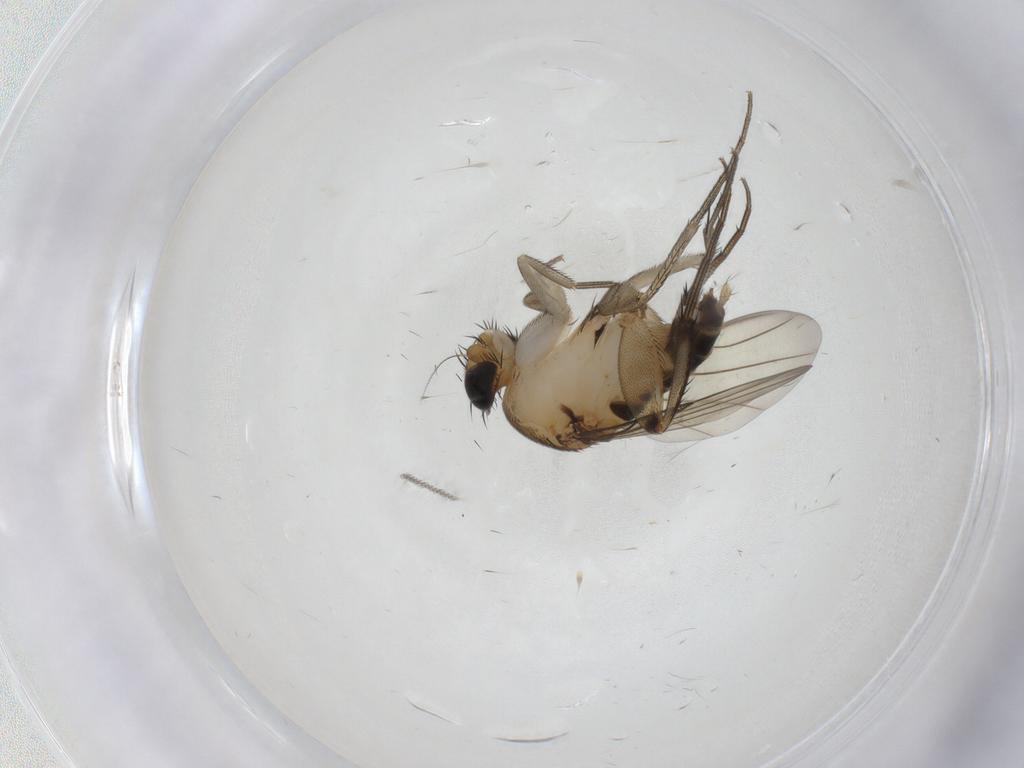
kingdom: Animalia
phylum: Arthropoda
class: Insecta
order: Diptera
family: Phoridae
